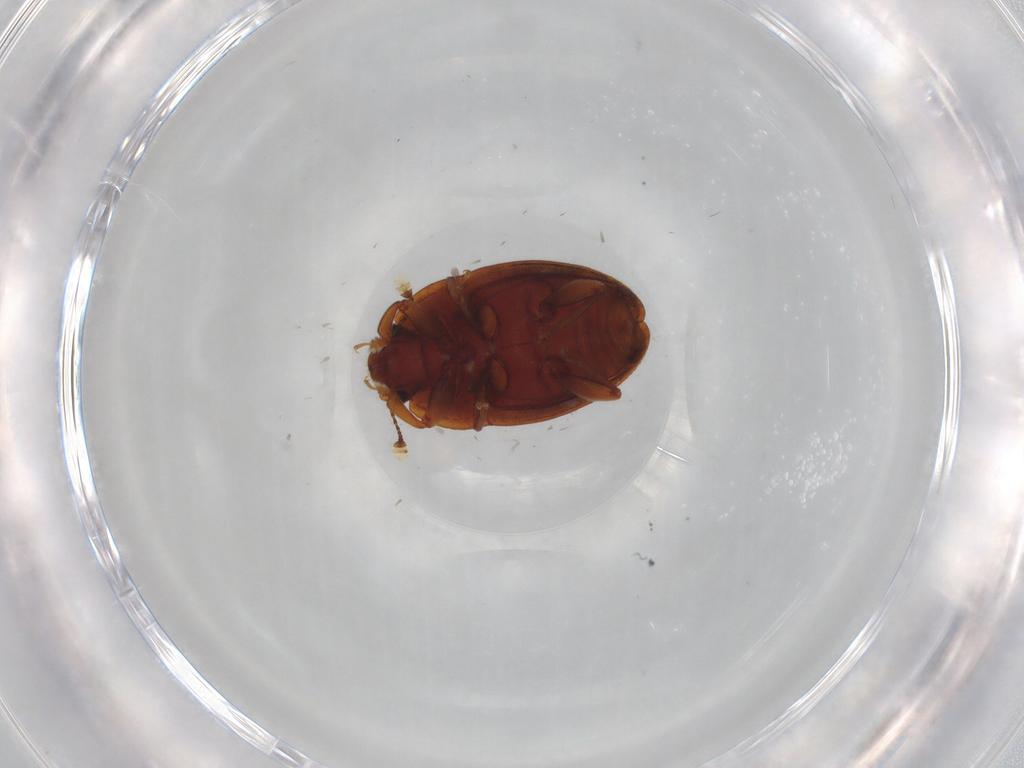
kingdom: Animalia
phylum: Arthropoda
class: Insecta
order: Coleoptera
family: Nitidulidae
